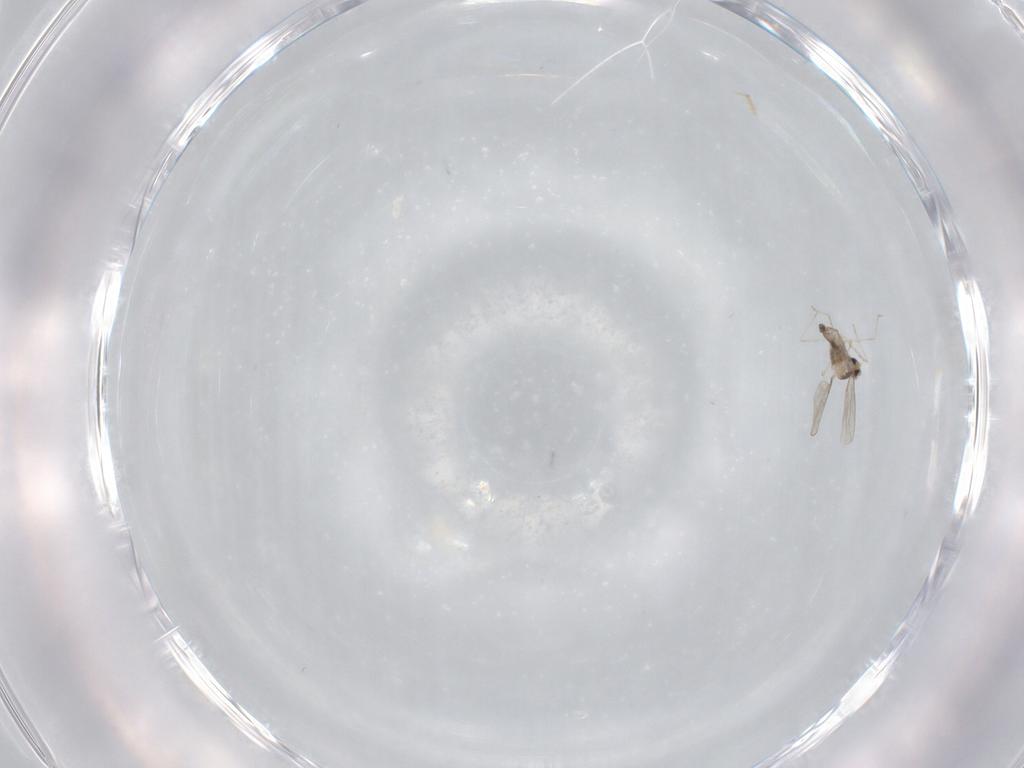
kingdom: Animalia
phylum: Arthropoda
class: Insecta
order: Diptera
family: Cecidomyiidae
